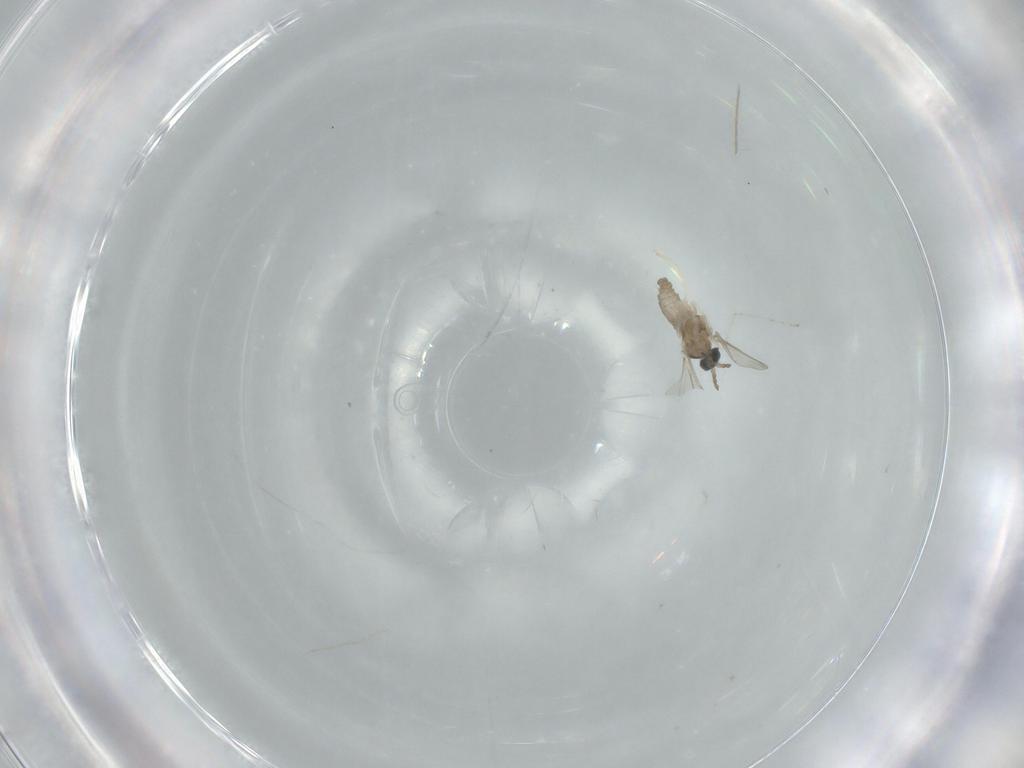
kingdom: Animalia
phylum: Arthropoda
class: Insecta
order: Diptera
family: Cecidomyiidae
